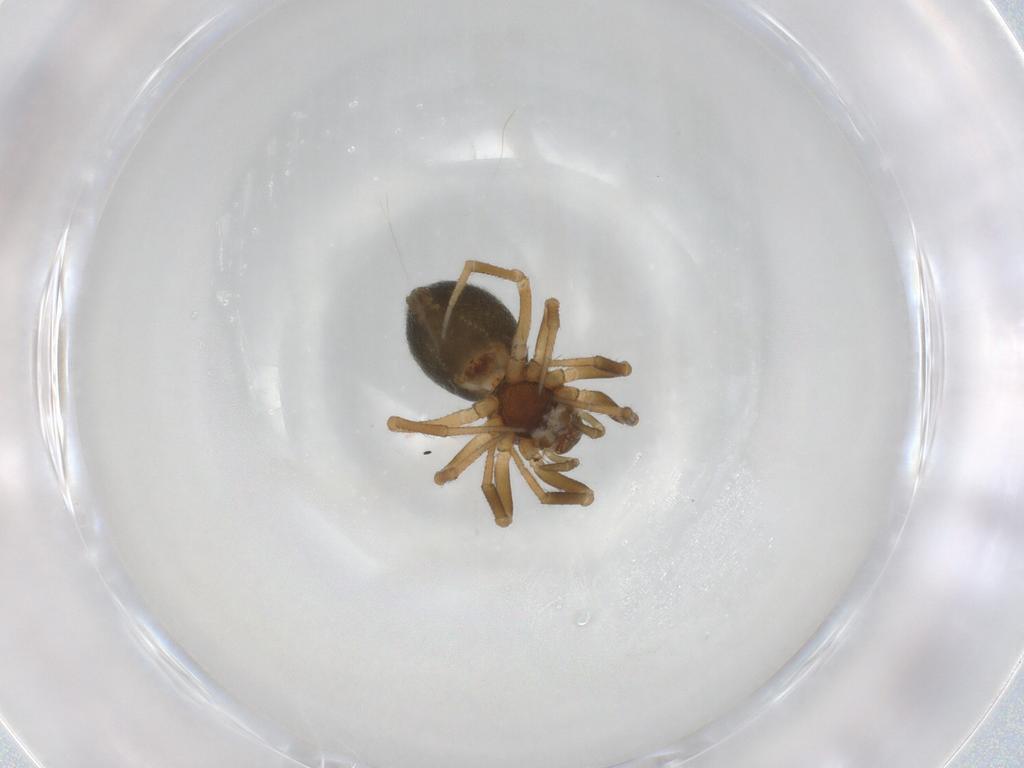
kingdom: Animalia
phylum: Arthropoda
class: Arachnida
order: Araneae
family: Linyphiidae
